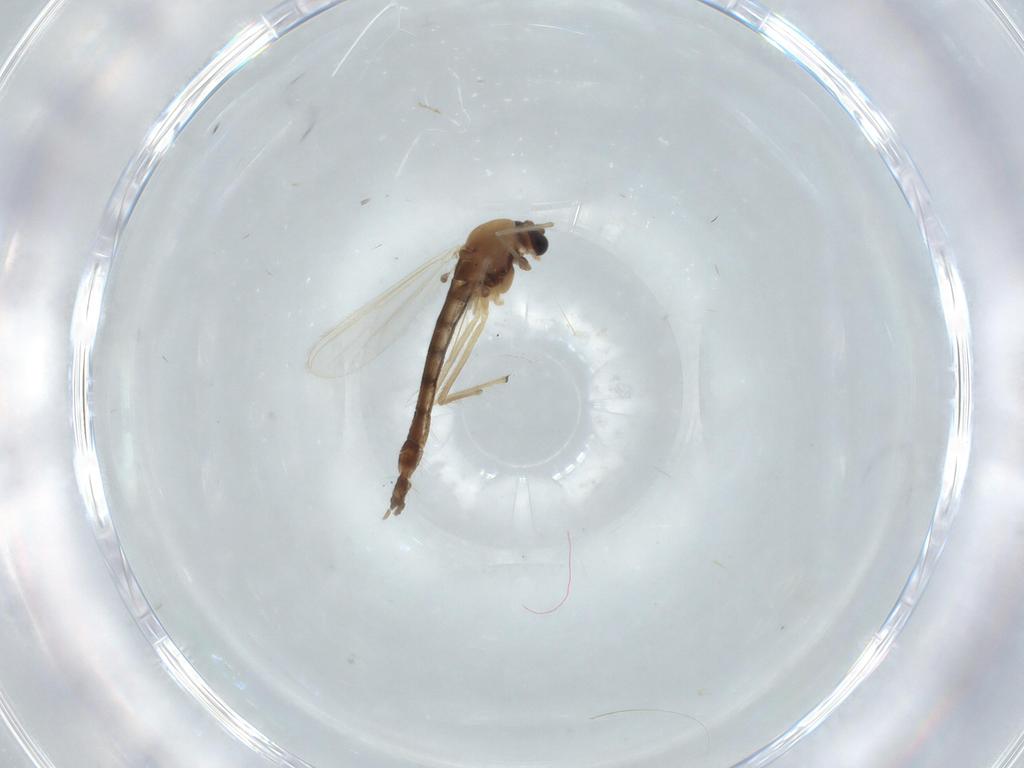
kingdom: Animalia
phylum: Arthropoda
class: Insecta
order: Diptera
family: Chironomidae
